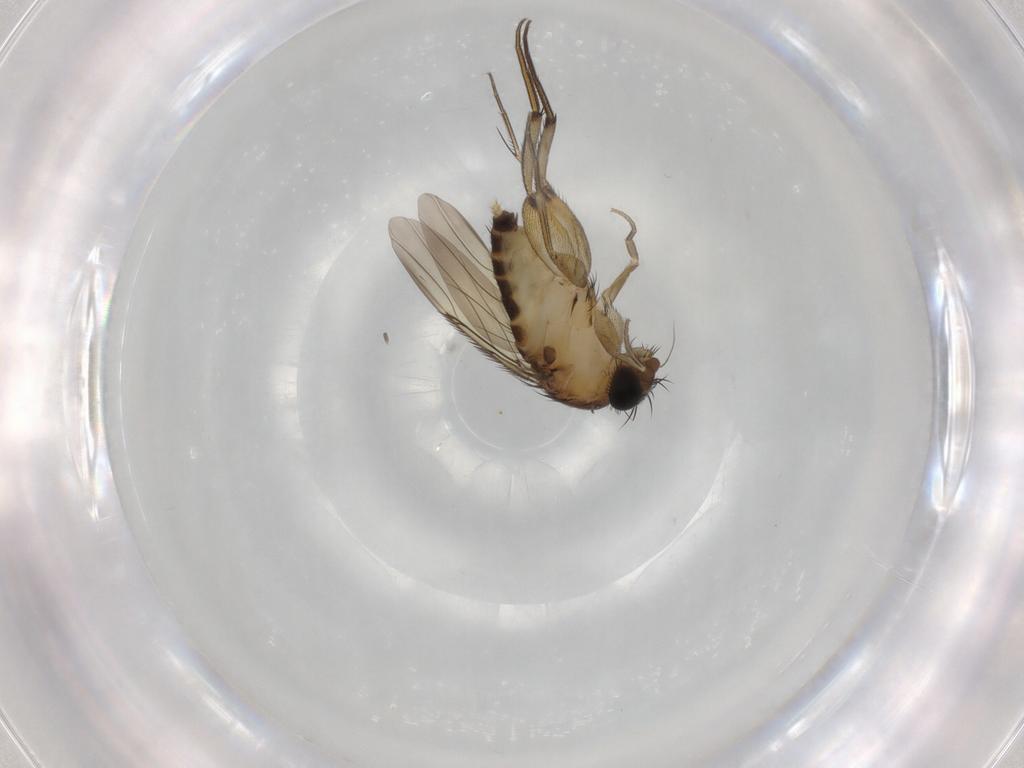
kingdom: Animalia
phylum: Arthropoda
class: Insecta
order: Diptera
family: Phoridae
